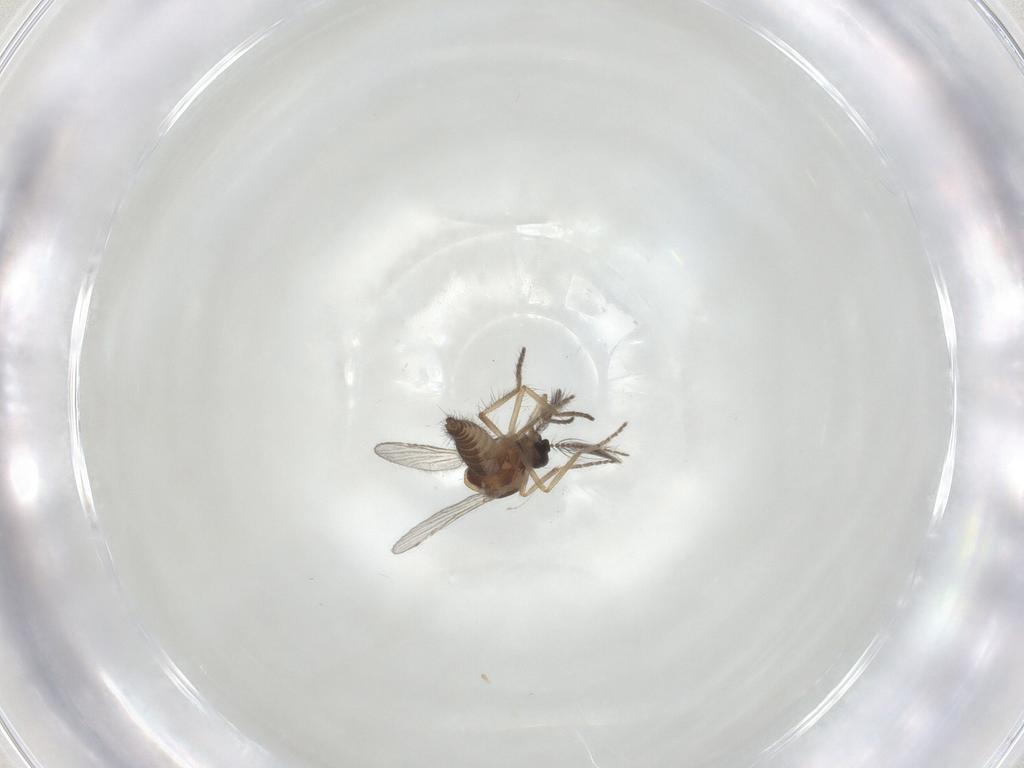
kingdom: Animalia
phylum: Arthropoda
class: Insecta
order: Diptera
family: Ceratopogonidae
